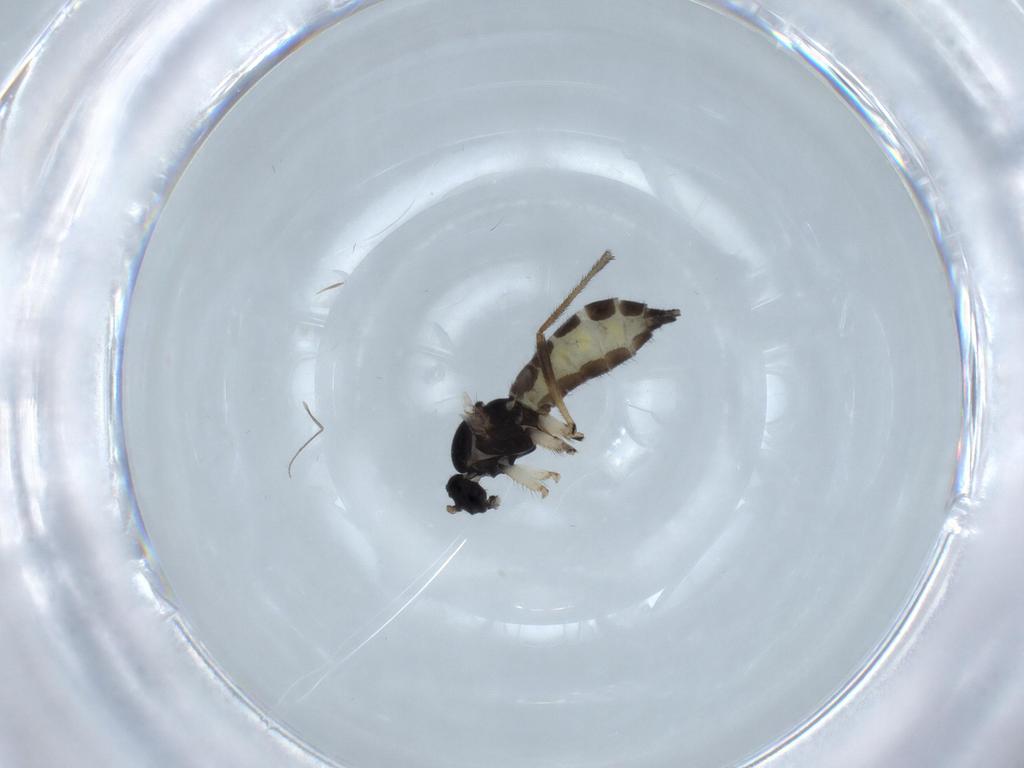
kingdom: Animalia
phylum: Arthropoda
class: Insecta
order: Diptera
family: Sciaridae
